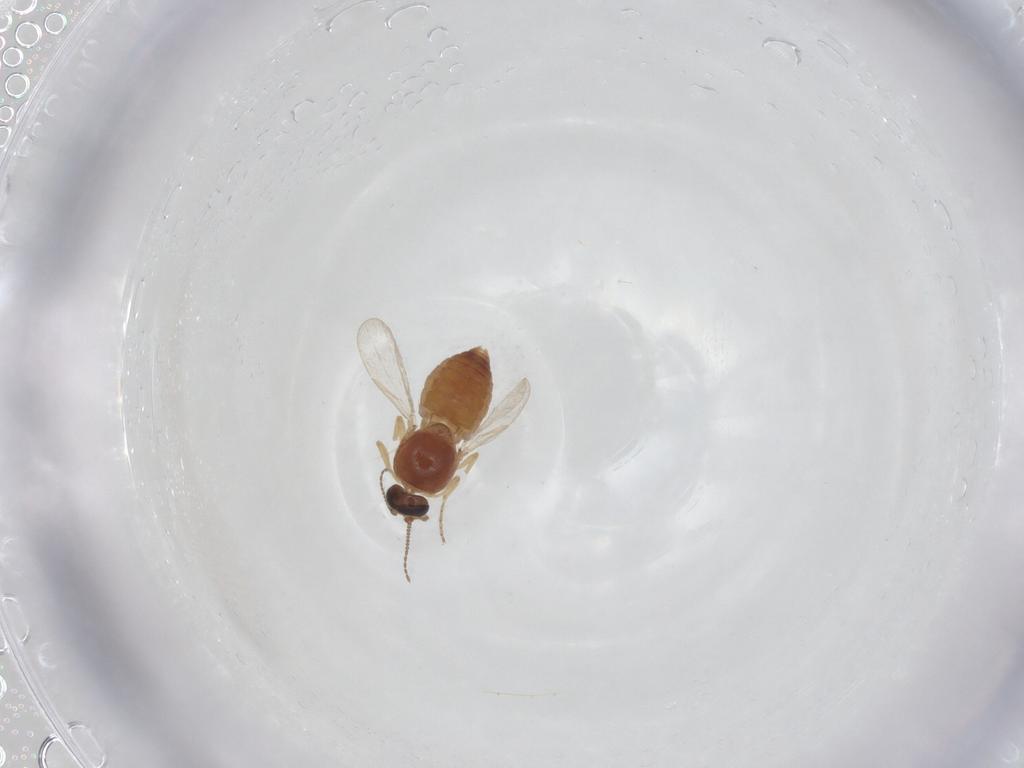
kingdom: Animalia
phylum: Arthropoda
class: Insecta
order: Diptera
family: Ceratopogonidae
